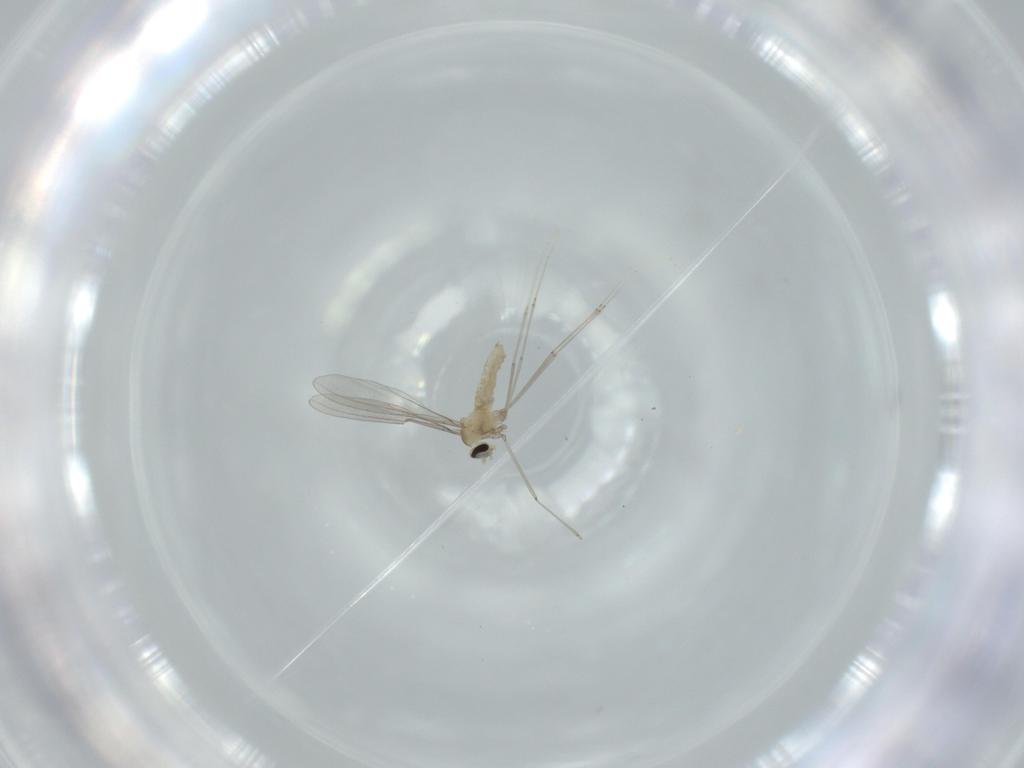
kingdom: Animalia
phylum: Arthropoda
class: Insecta
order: Diptera
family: Cecidomyiidae
